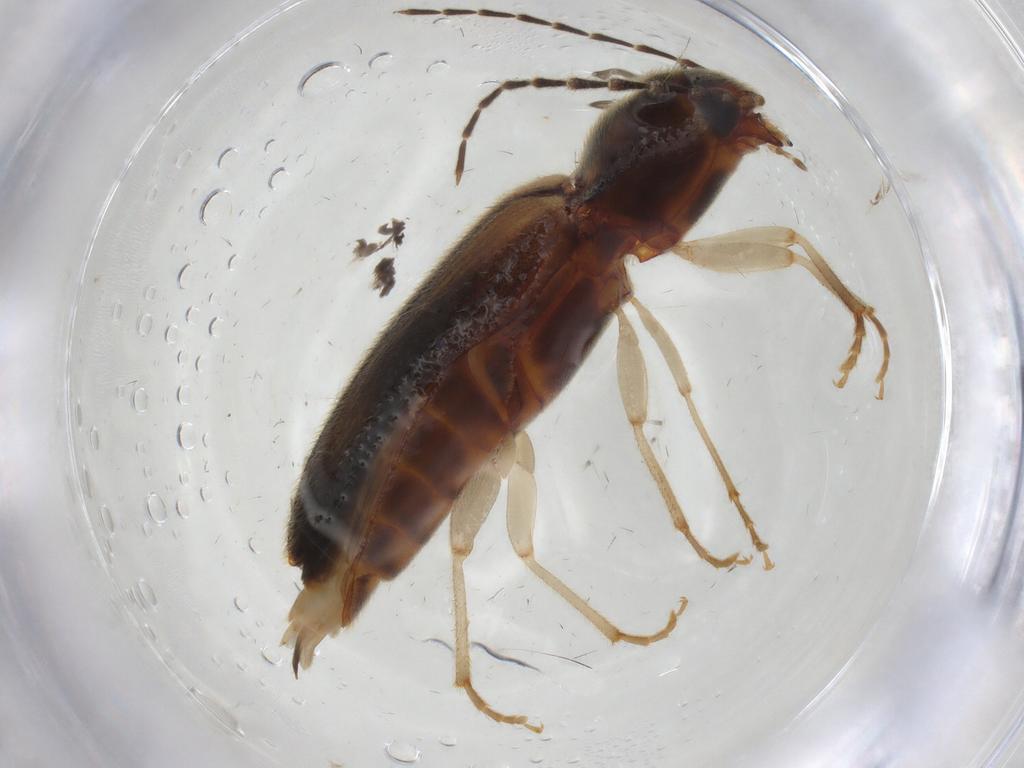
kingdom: Animalia
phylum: Arthropoda
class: Insecta
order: Coleoptera
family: Elateridae
